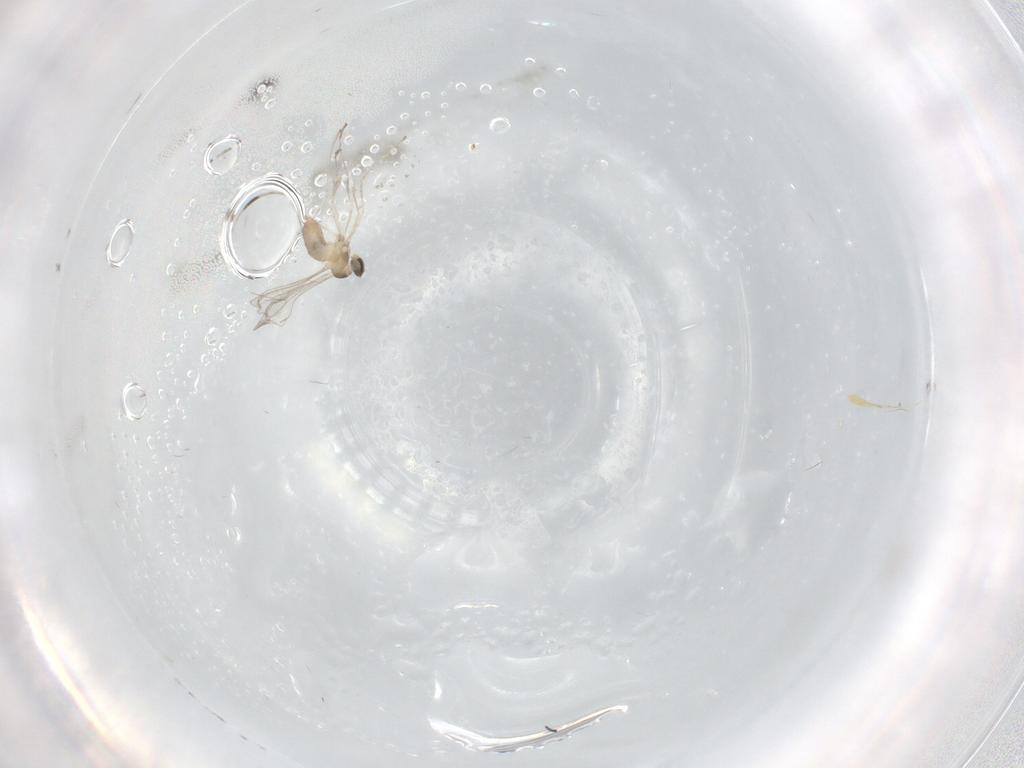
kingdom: Animalia
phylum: Arthropoda
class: Insecta
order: Diptera
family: Cecidomyiidae
